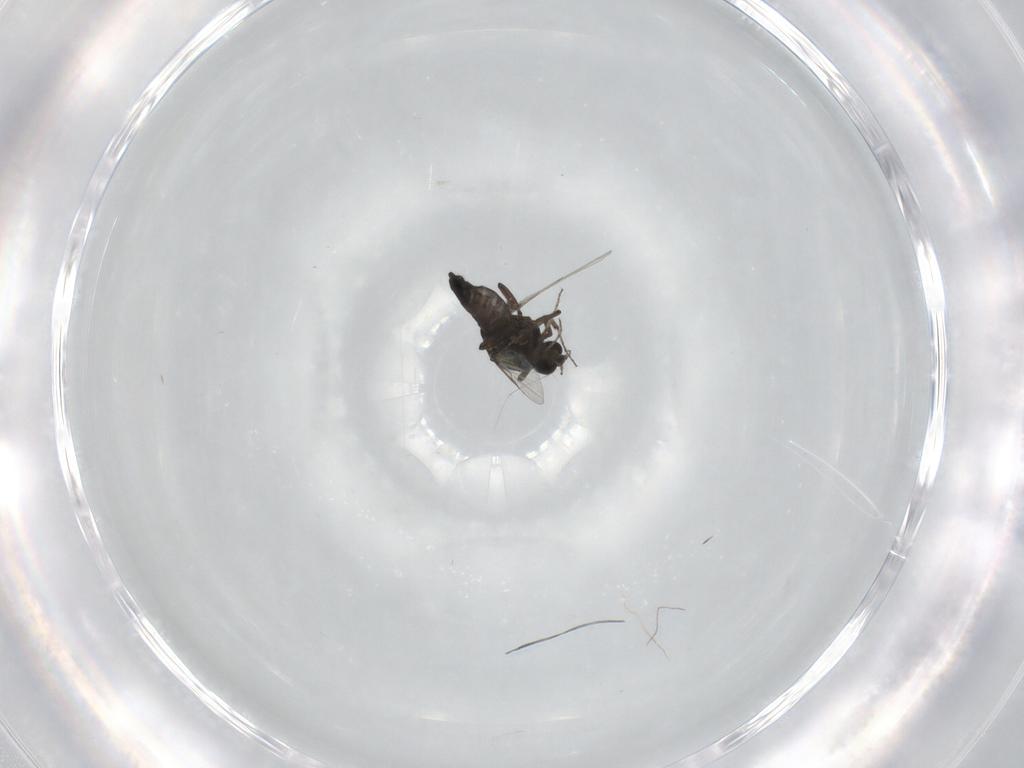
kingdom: Animalia
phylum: Arthropoda
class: Insecta
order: Diptera
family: Ceratopogonidae
